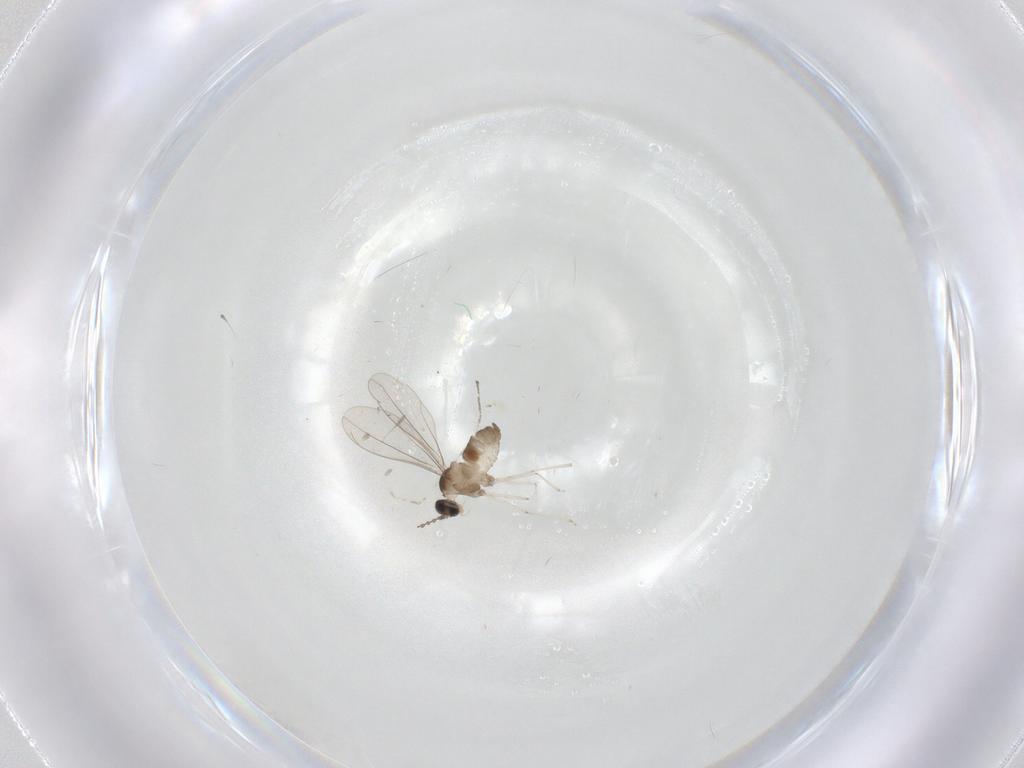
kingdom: Animalia
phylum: Arthropoda
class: Insecta
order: Diptera
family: Cecidomyiidae
